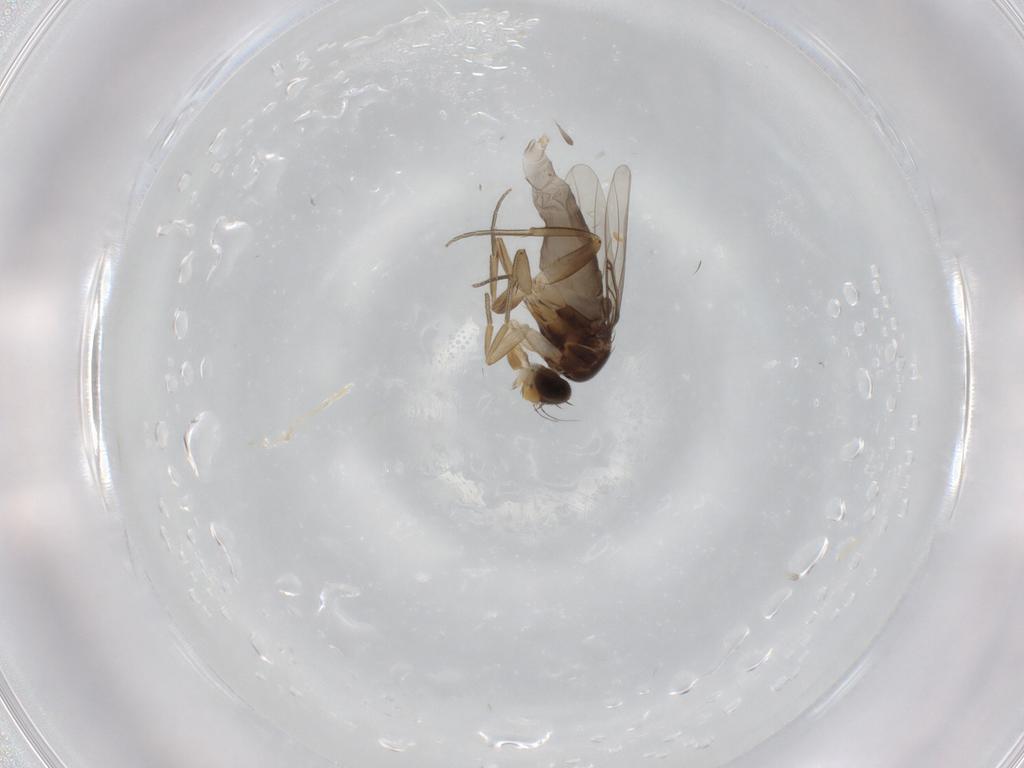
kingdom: Animalia
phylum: Arthropoda
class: Insecta
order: Diptera
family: Phoridae
